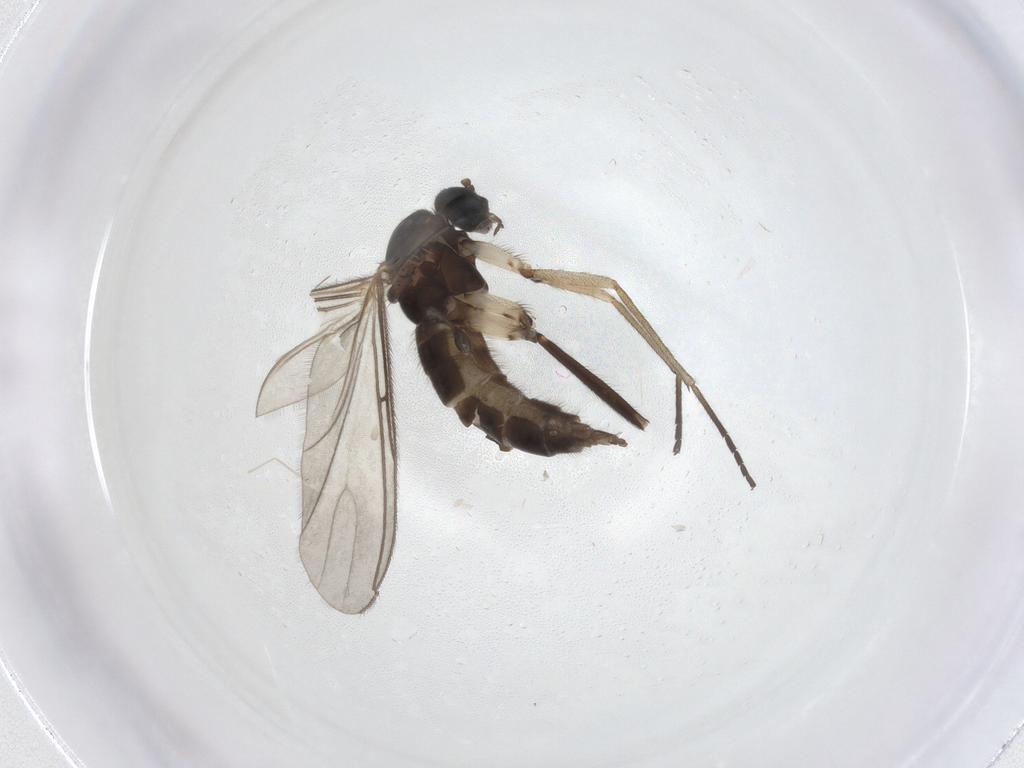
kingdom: Animalia
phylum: Arthropoda
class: Insecta
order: Diptera
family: Sciaridae
